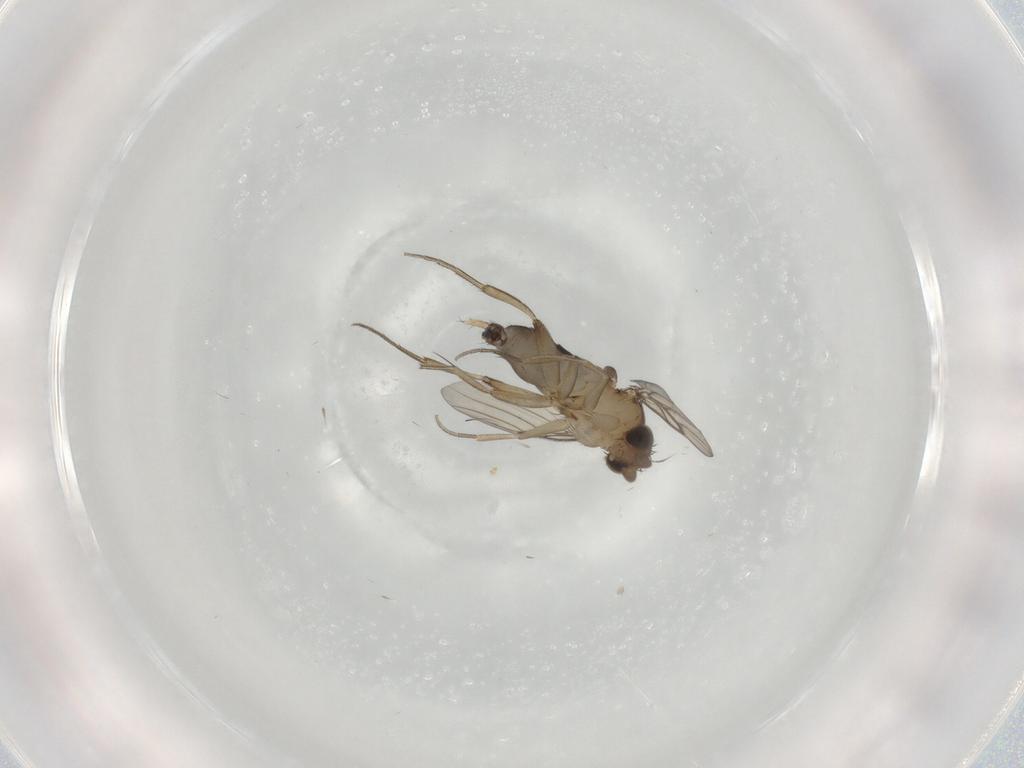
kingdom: Animalia
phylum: Arthropoda
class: Insecta
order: Diptera
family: Phoridae
